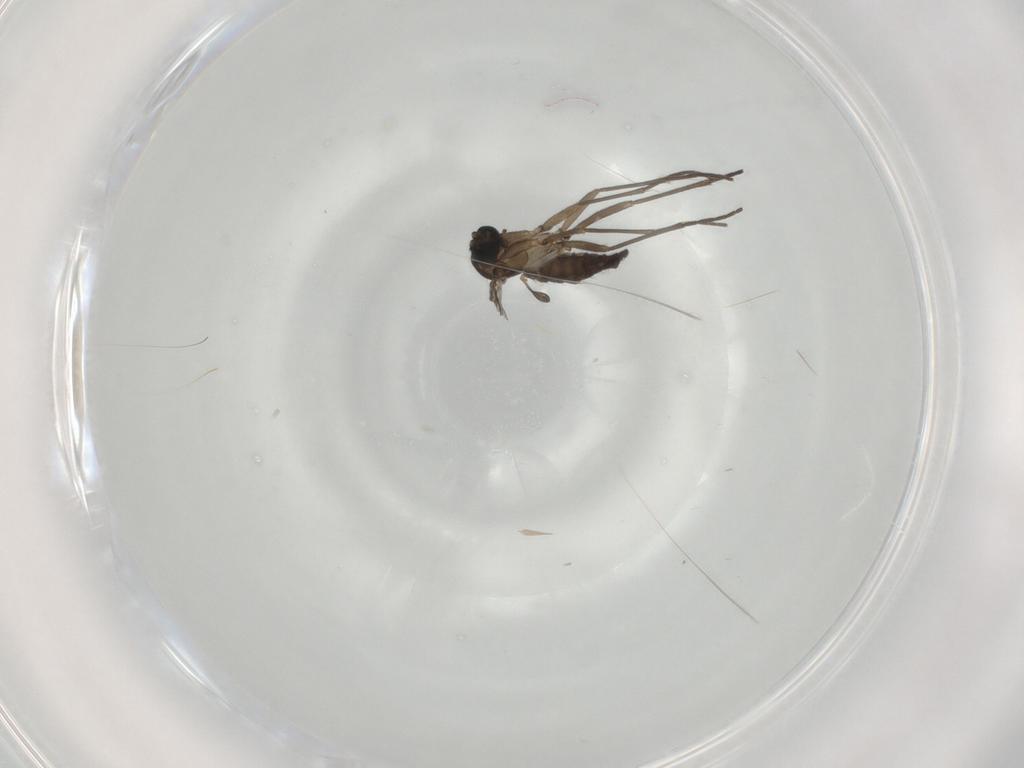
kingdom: Animalia
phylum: Arthropoda
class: Insecta
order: Diptera
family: Sciaridae
